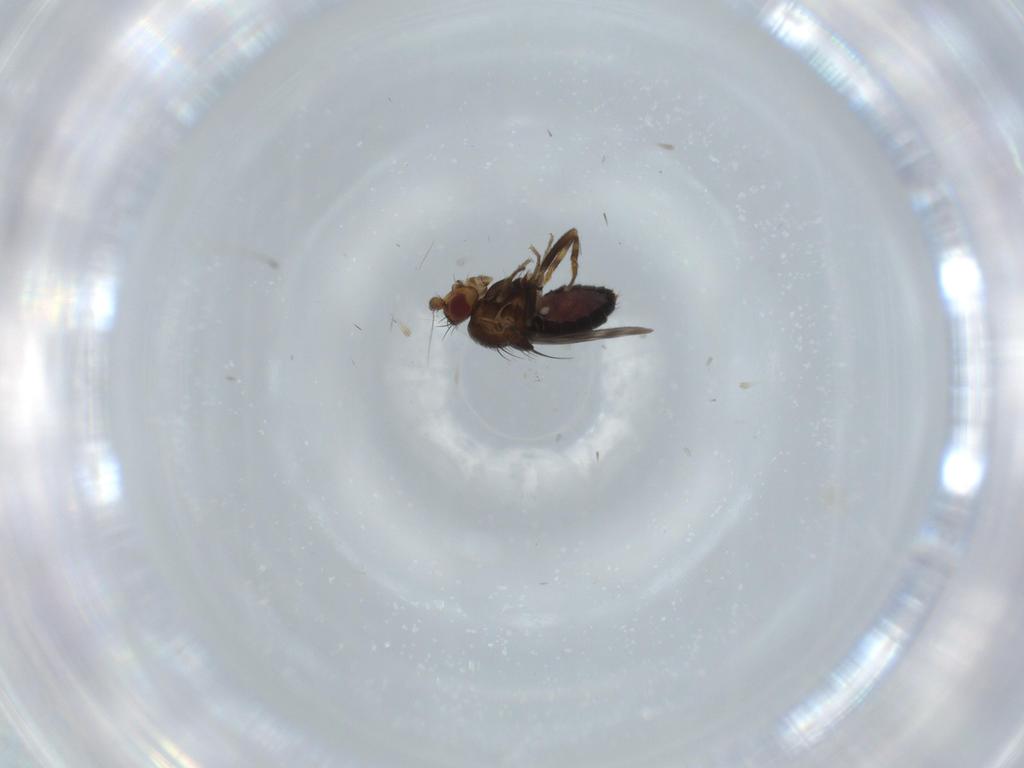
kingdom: Animalia
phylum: Arthropoda
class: Insecta
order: Diptera
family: Sphaeroceridae
